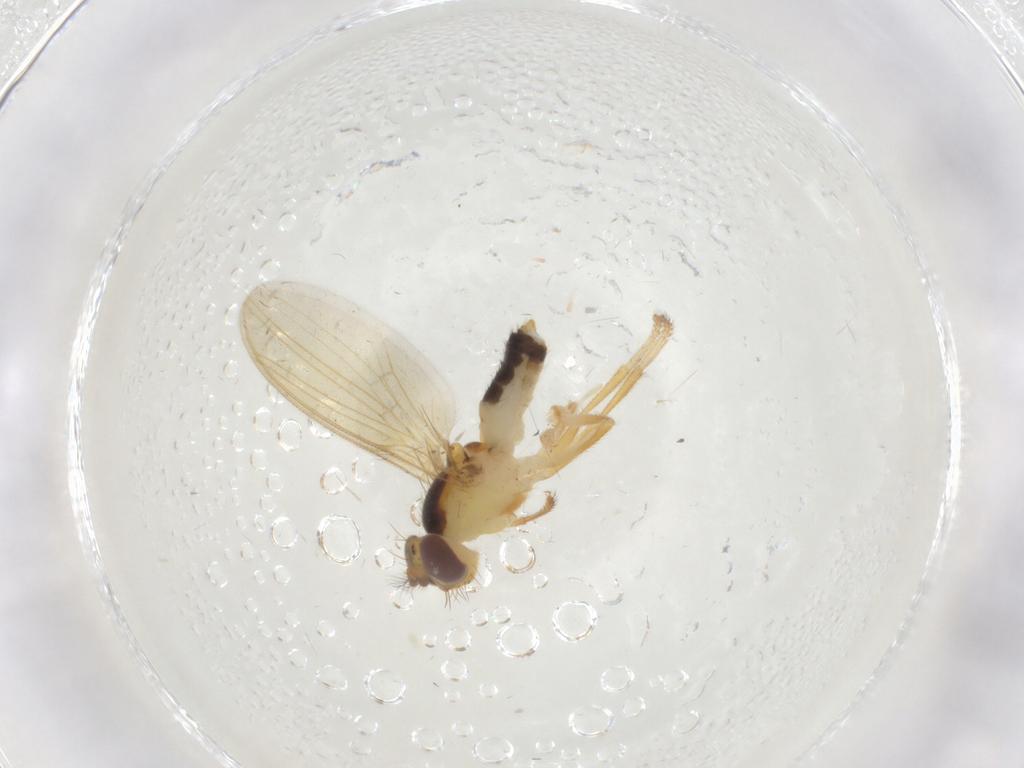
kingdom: Animalia
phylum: Arthropoda
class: Insecta
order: Diptera
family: Periscelididae
